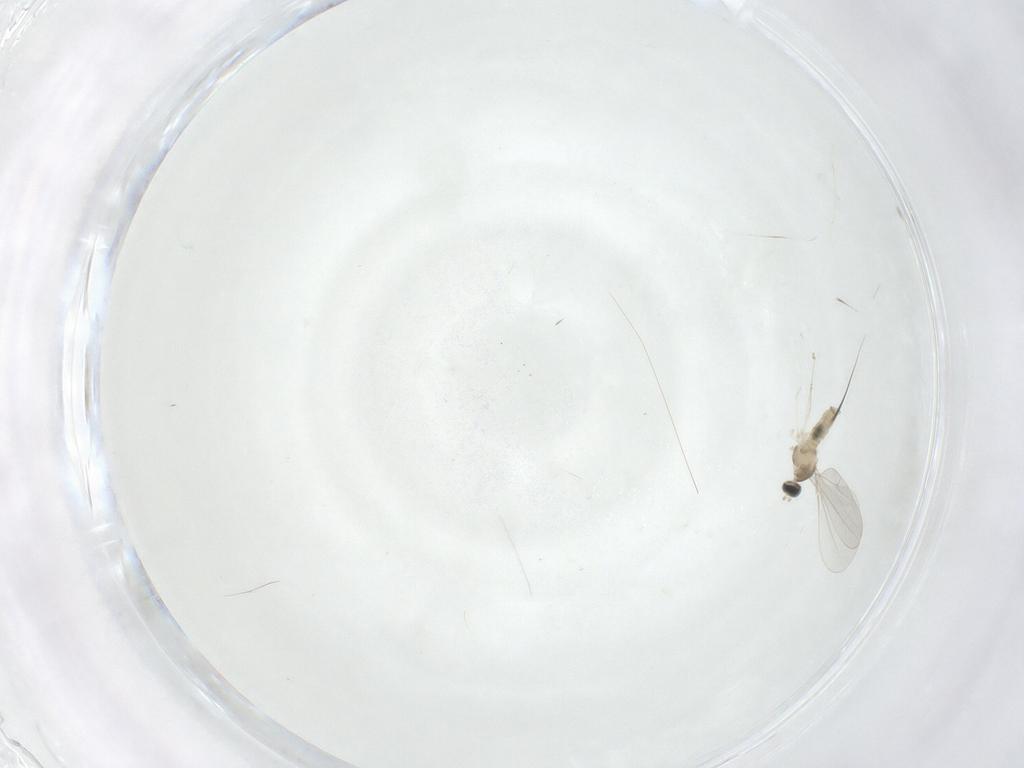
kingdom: Animalia
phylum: Arthropoda
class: Insecta
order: Diptera
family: Cecidomyiidae
